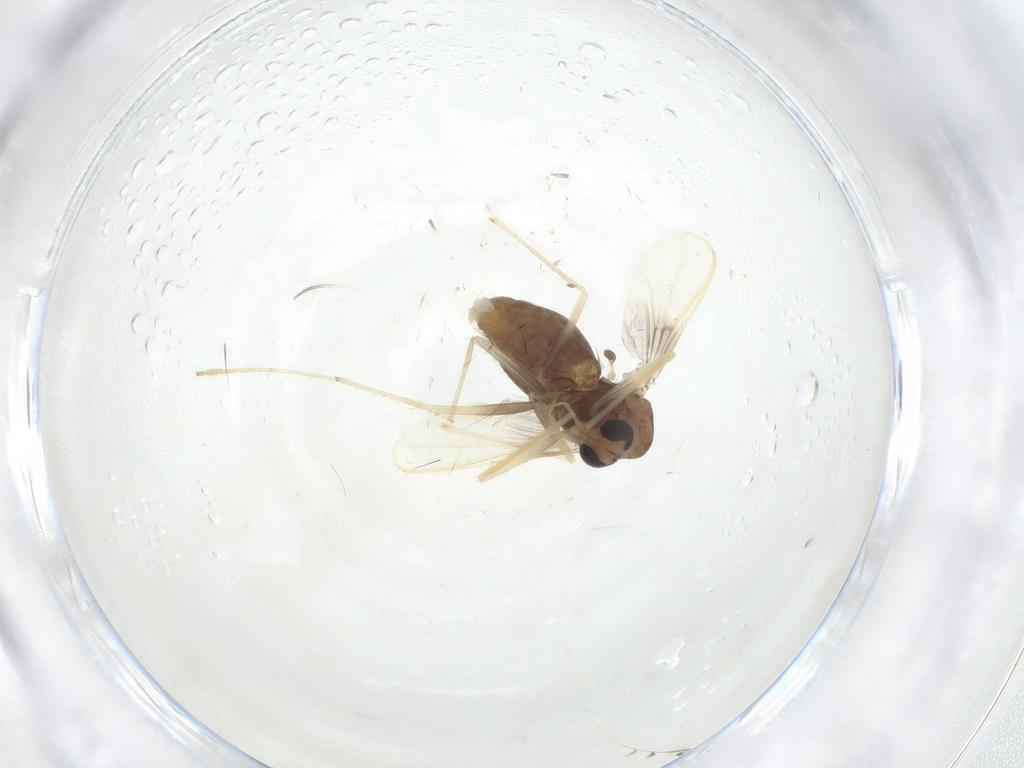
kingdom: Animalia
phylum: Arthropoda
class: Insecta
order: Diptera
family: Chironomidae
